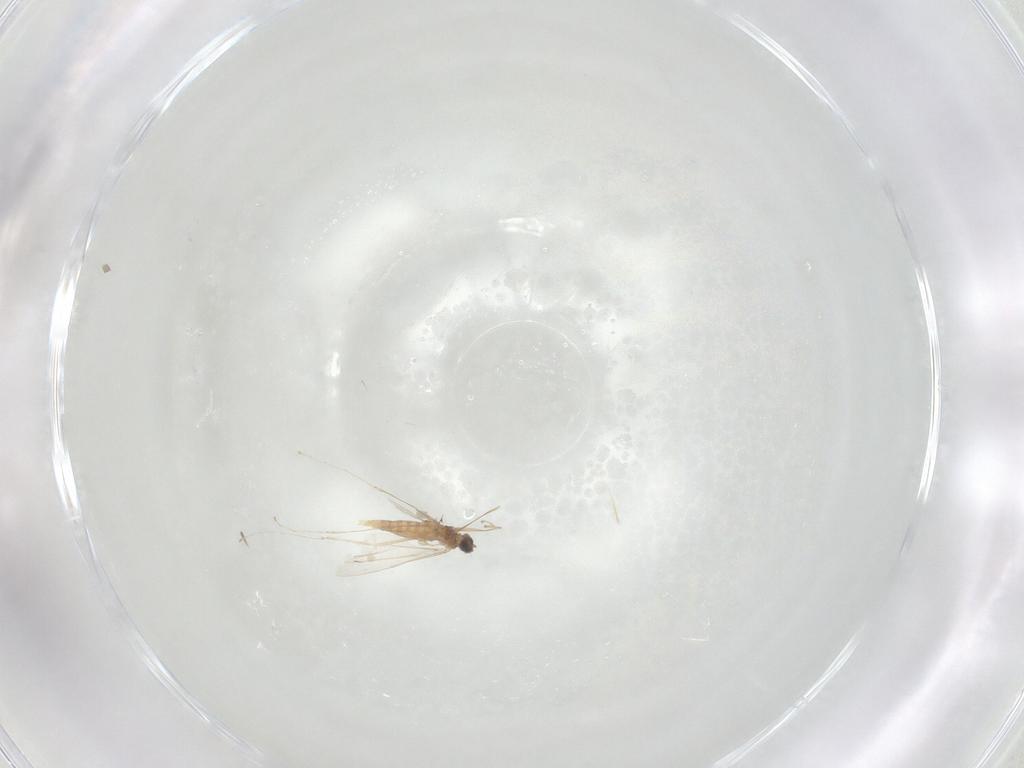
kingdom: Animalia
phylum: Arthropoda
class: Insecta
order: Diptera
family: Cecidomyiidae
